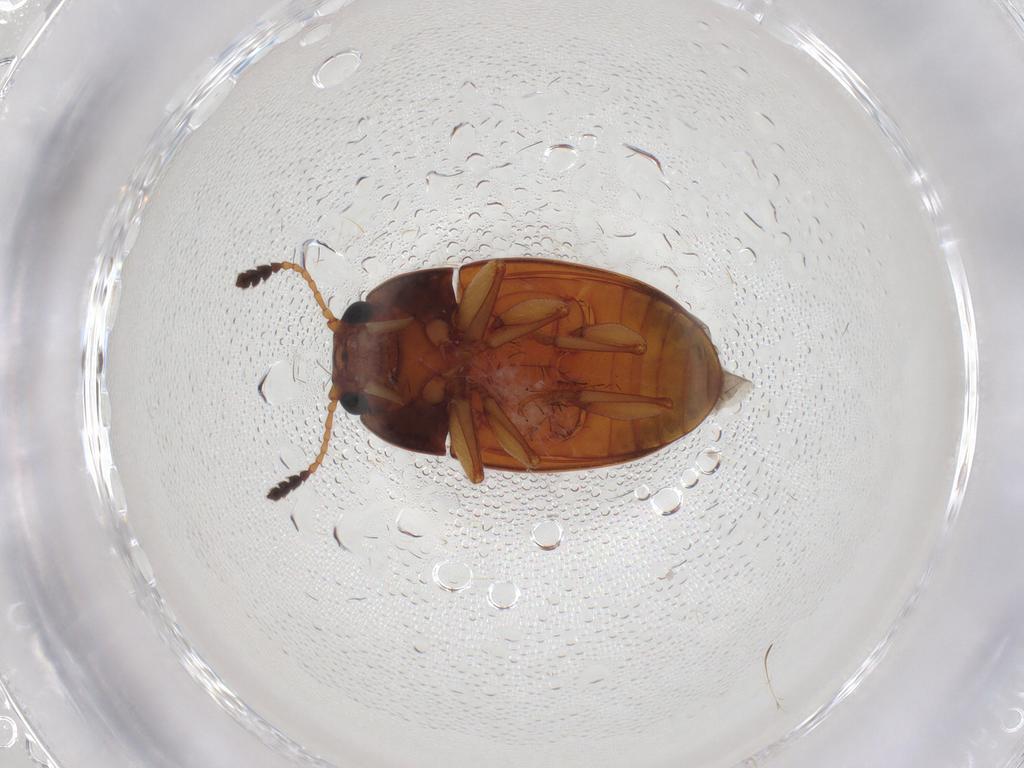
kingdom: Animalia
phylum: Arthropoda
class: Insecta
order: Coleoptera
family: Erotylidae
